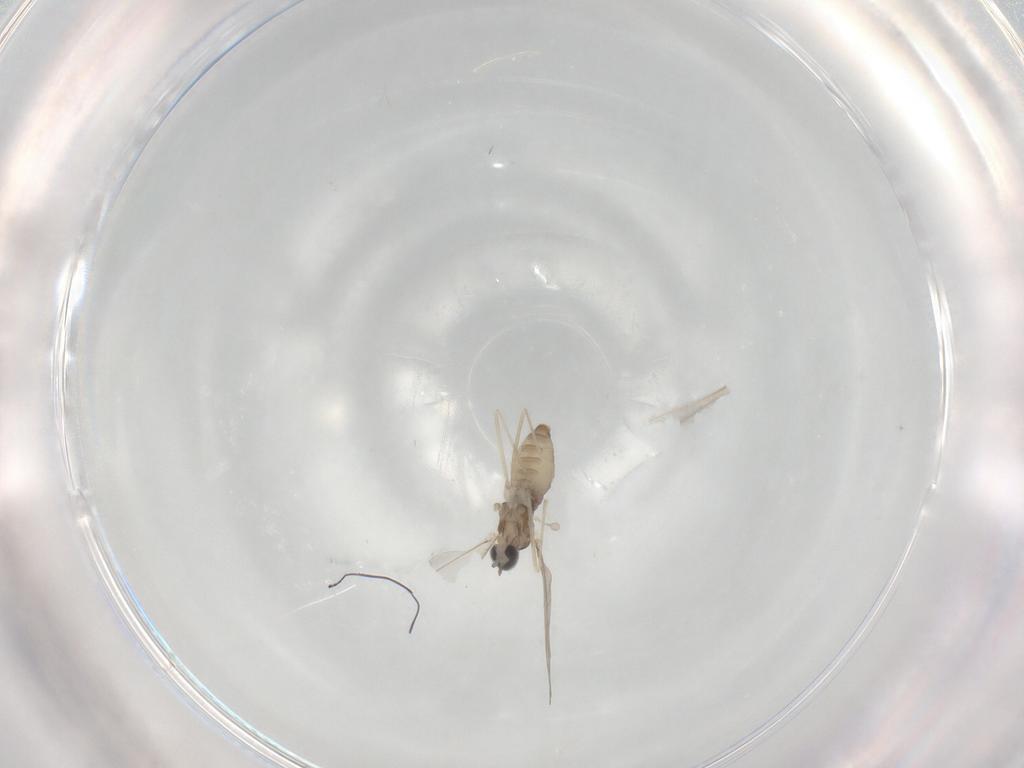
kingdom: Animalia
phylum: Arthropoda
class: Insecta
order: Diptera
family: Cecidomyiidae
